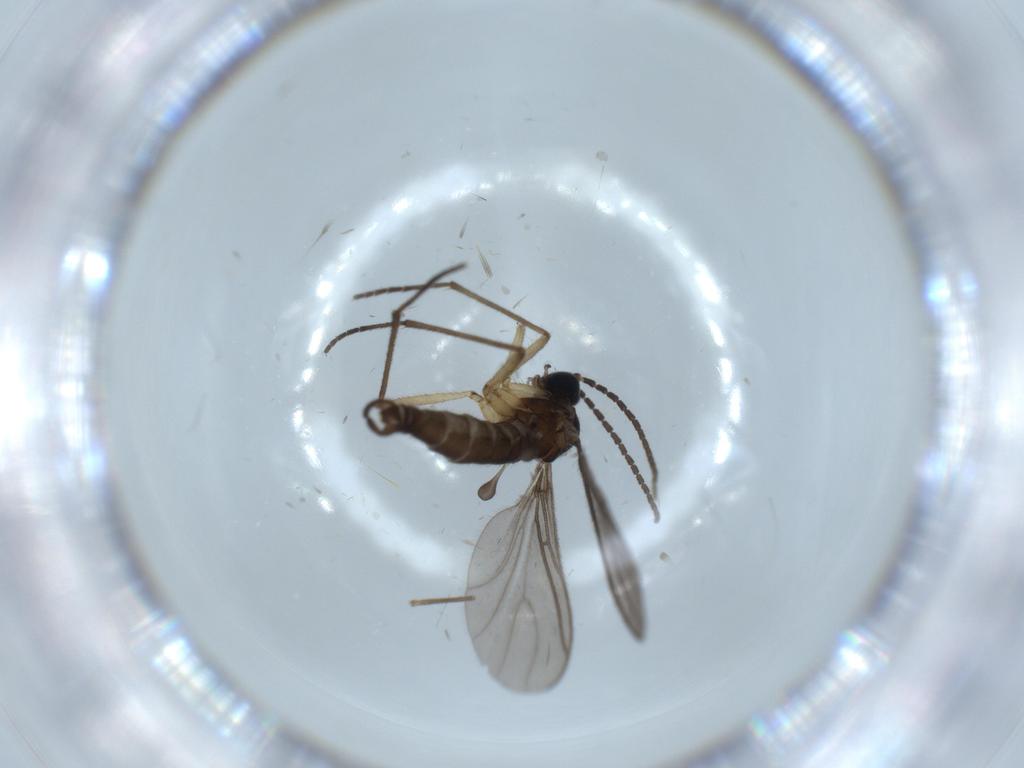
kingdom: Animalia
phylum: Arthropoda
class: Insecta
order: Diptera
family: Sciaridae
